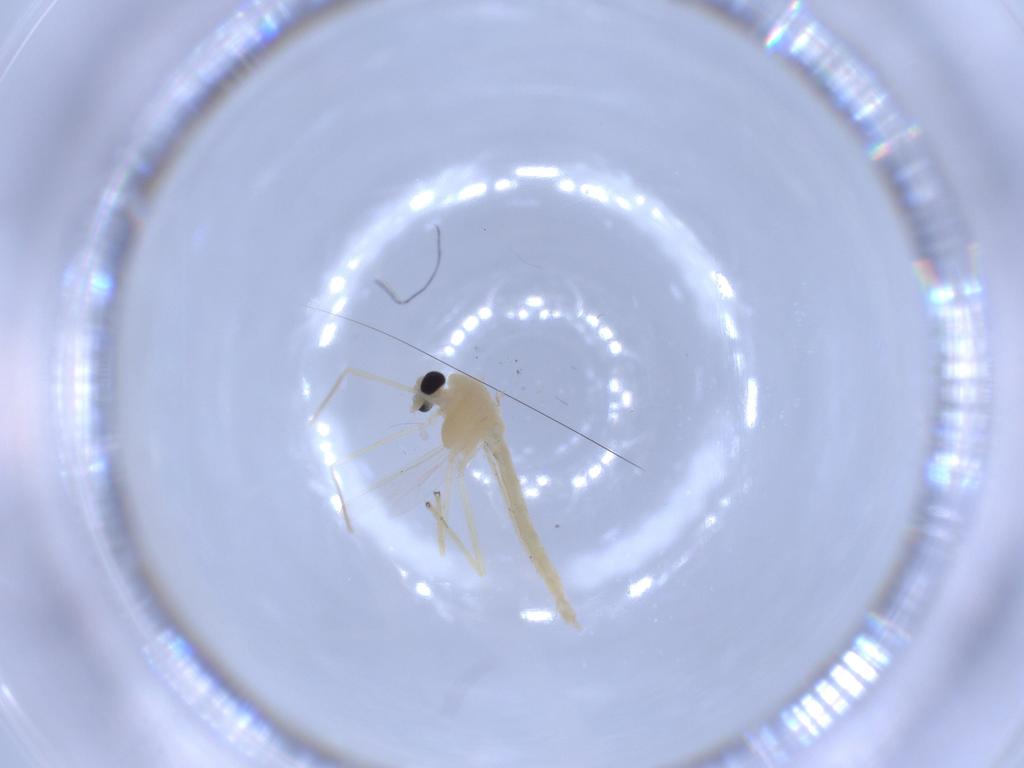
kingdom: Animalia
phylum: Arthropoda
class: Insecta
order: Diptera
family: Chironomidae
